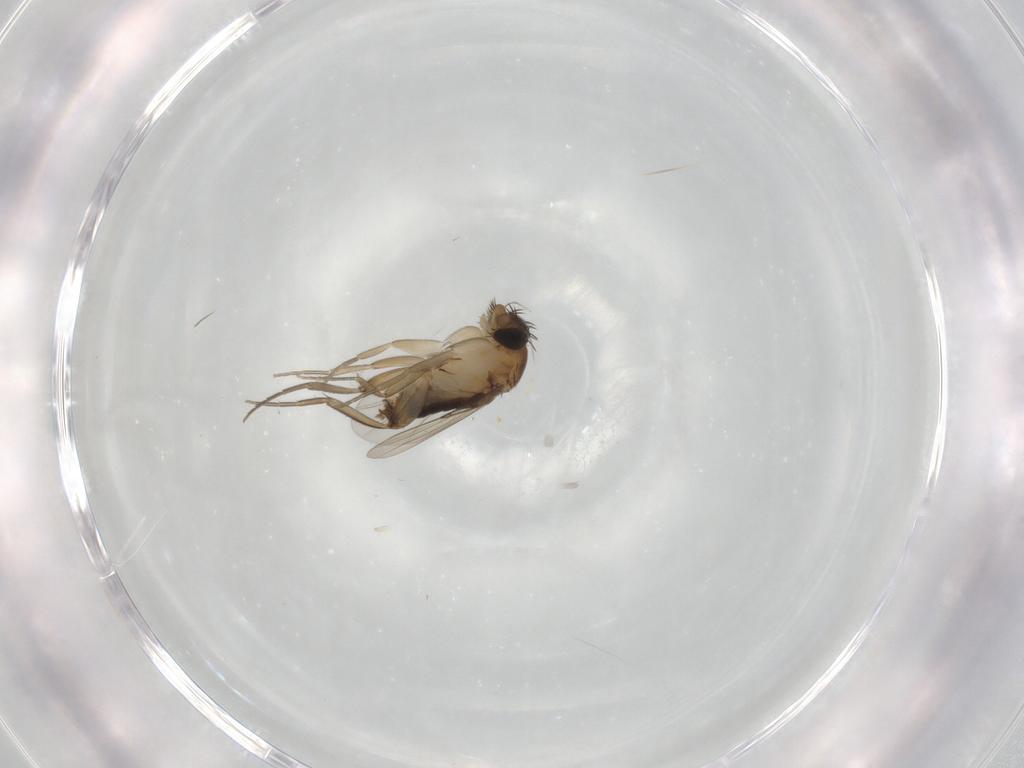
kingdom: Animalia
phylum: Arthropoda
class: Insecta
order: Diptera
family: Phoridae
